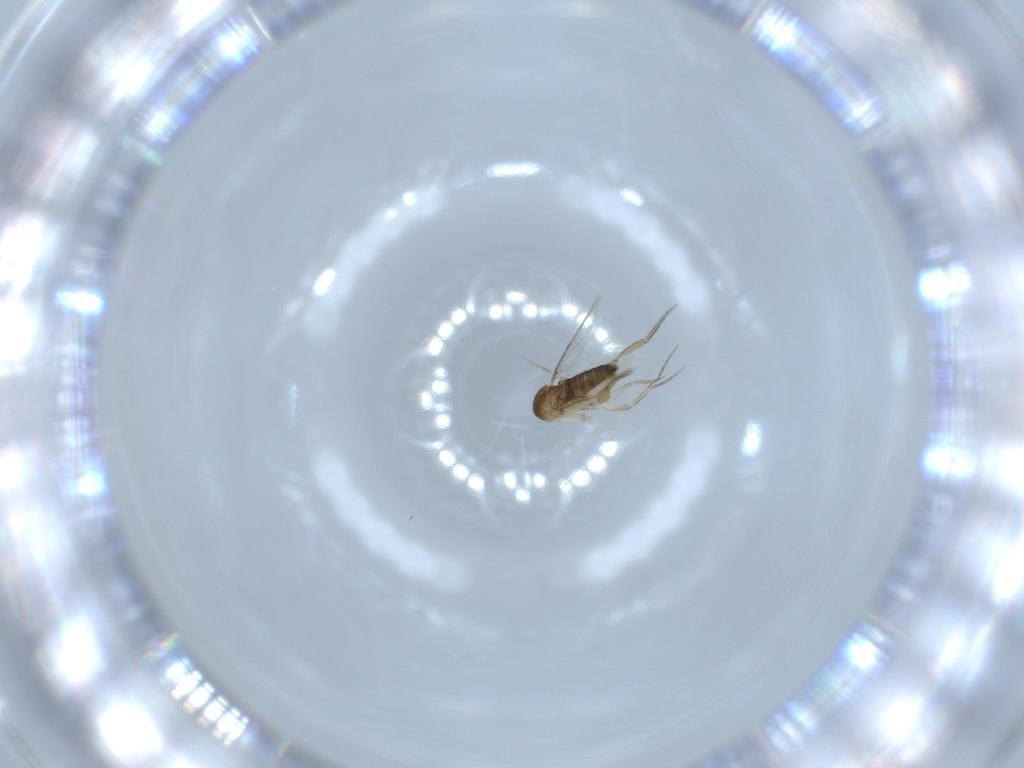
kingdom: Animalia
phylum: Arthropoda
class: Insecta
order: Diptera
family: Phoridae
